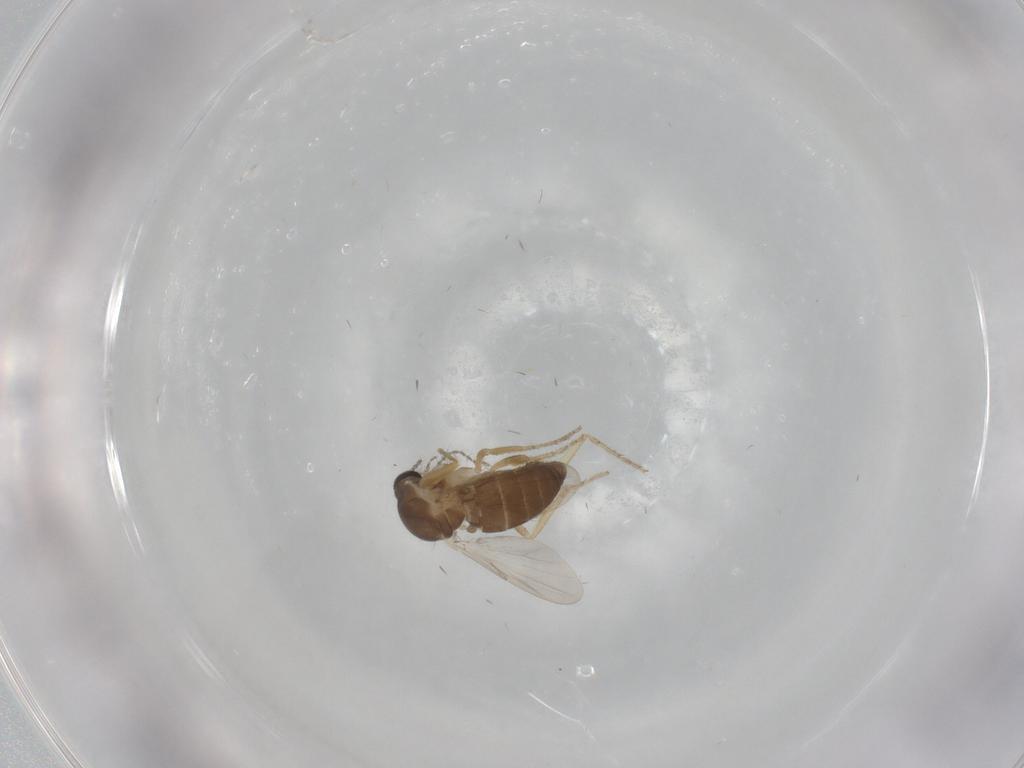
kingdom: Animalia
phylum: Arthropoda
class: Insecta
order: Diptera
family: Ceratopogonidae
